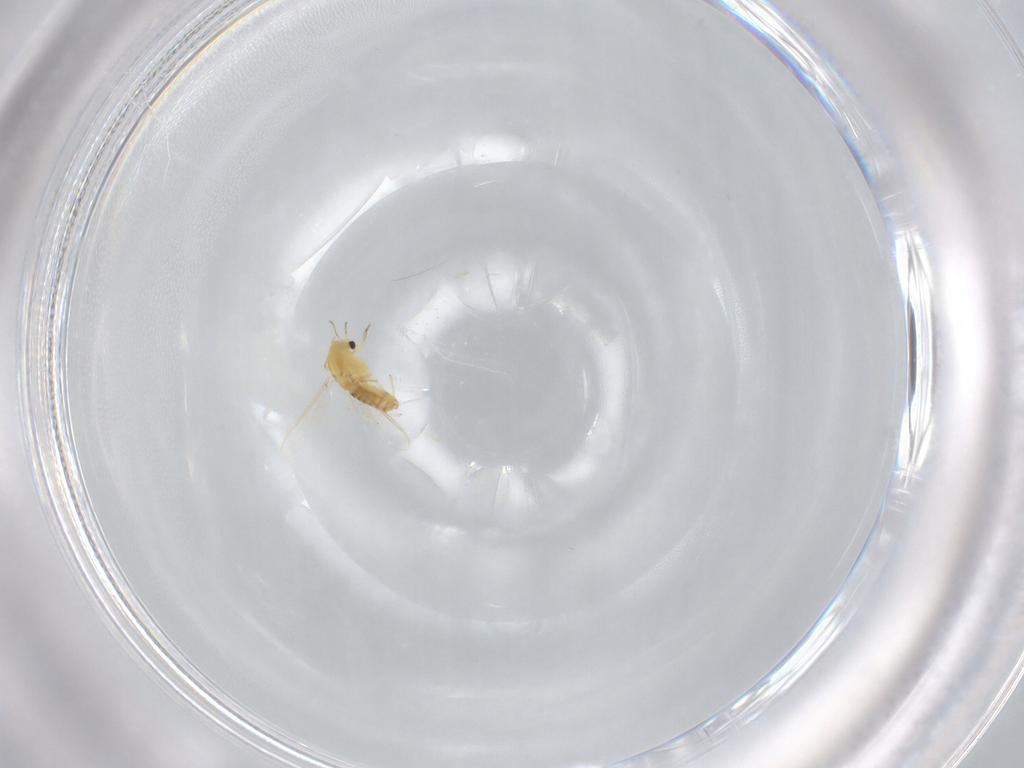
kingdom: Animalia
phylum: Arthropoda
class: Insecta
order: Diptera
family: Chironomidae
